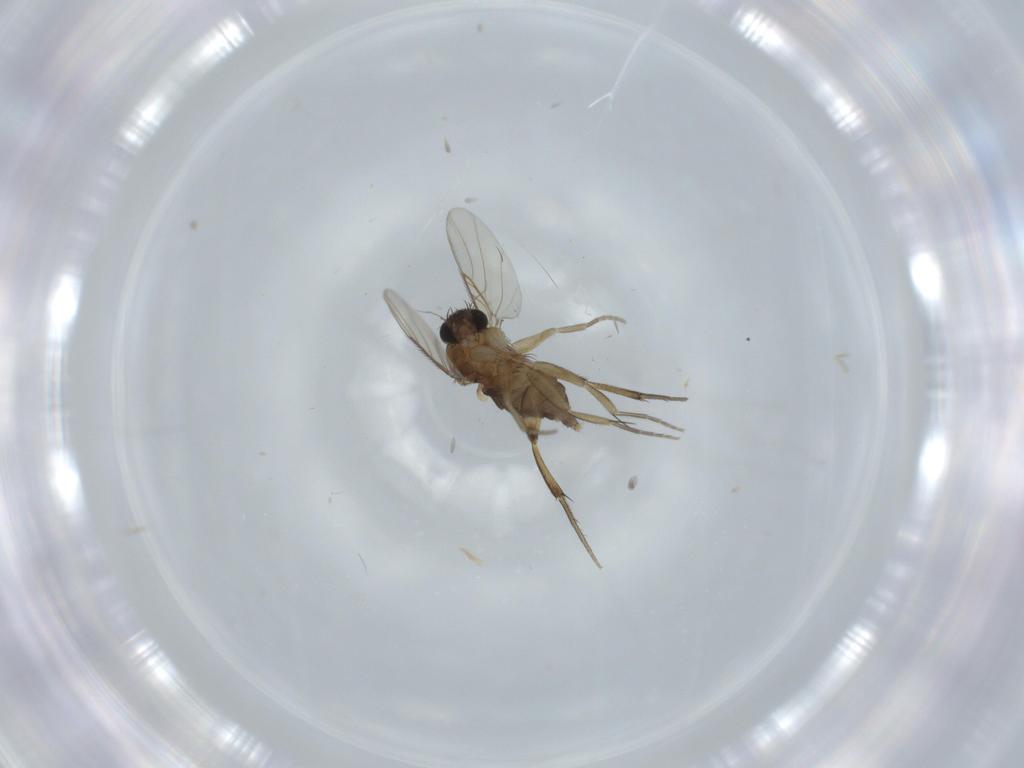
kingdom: Animalia
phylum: Arthropoda
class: Insecta
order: Diptera
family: Phoridae
